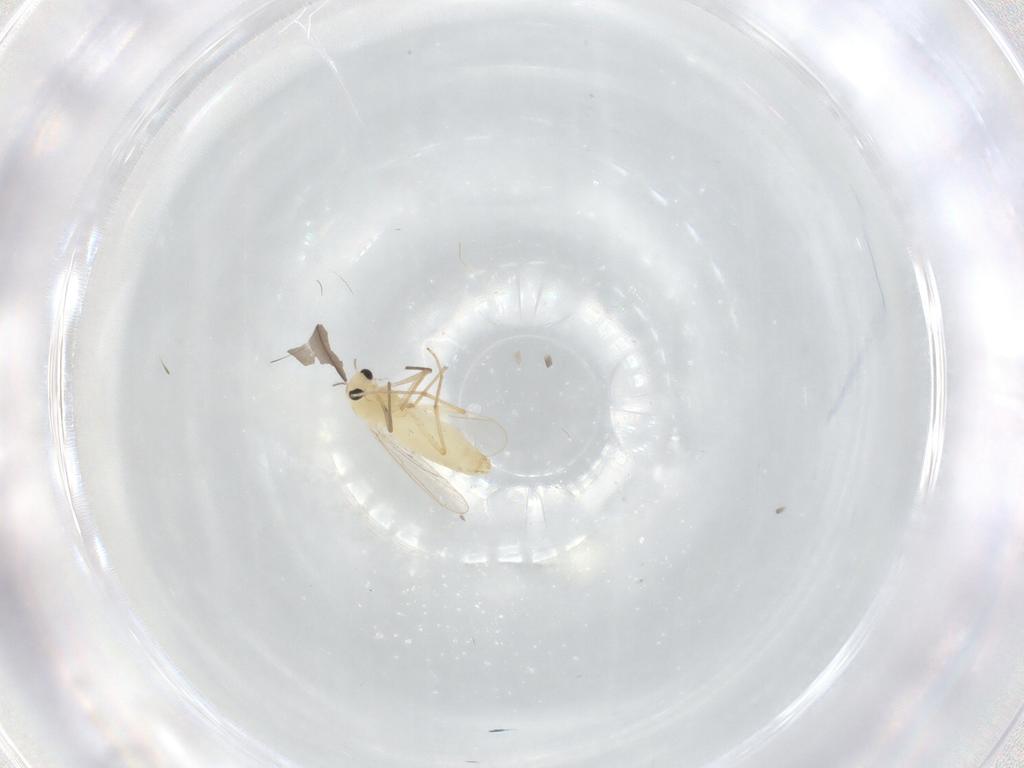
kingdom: Animalia
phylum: Arthropoda
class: Insecta
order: Diptera
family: Chironomidae
